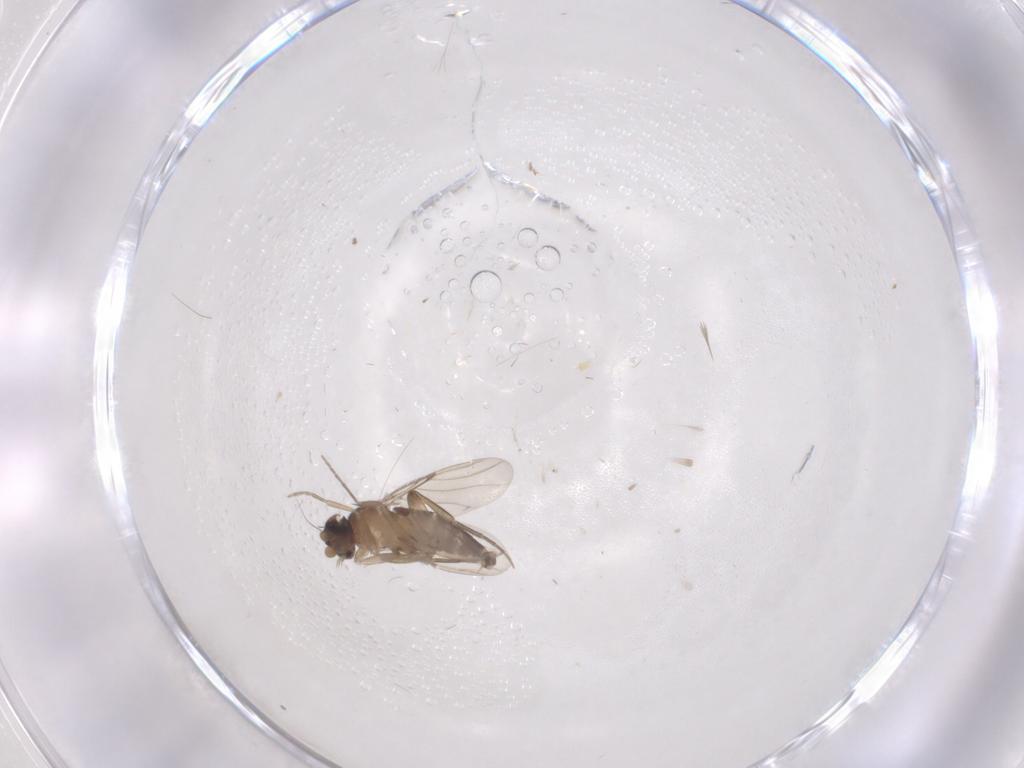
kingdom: Animalia
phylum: Arthropoda
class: Insecta
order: Diptera
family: Phoridae
